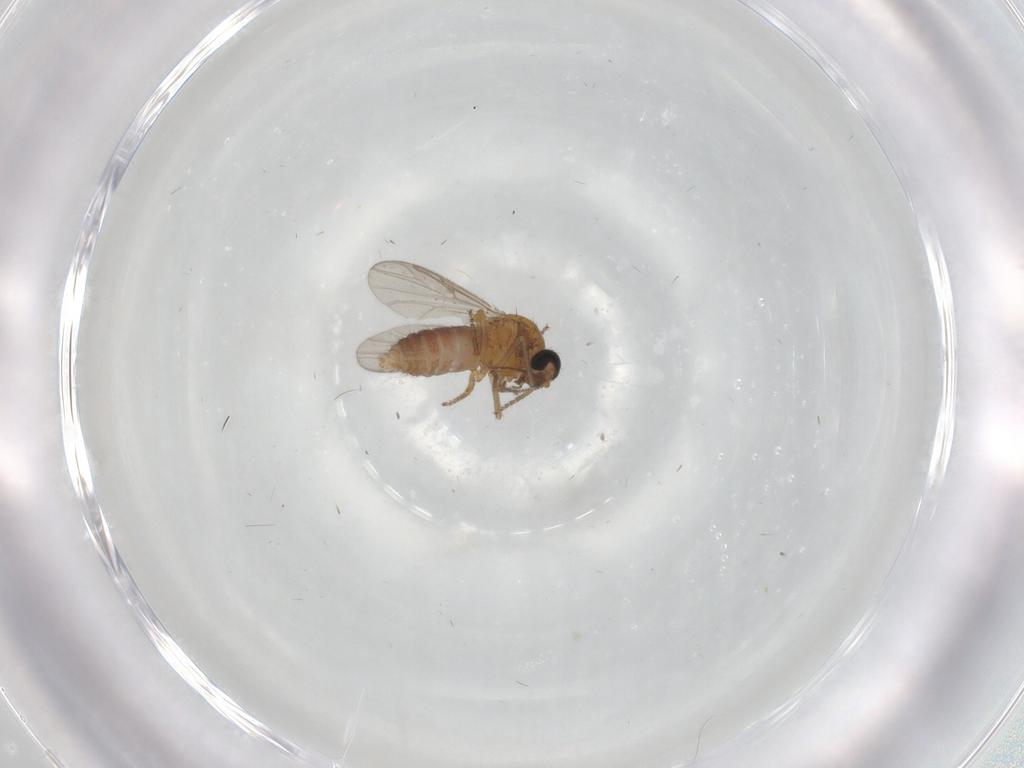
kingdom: Animalia
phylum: Arthropoda
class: Insecta
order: Diptera
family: Ceratopogonidae
